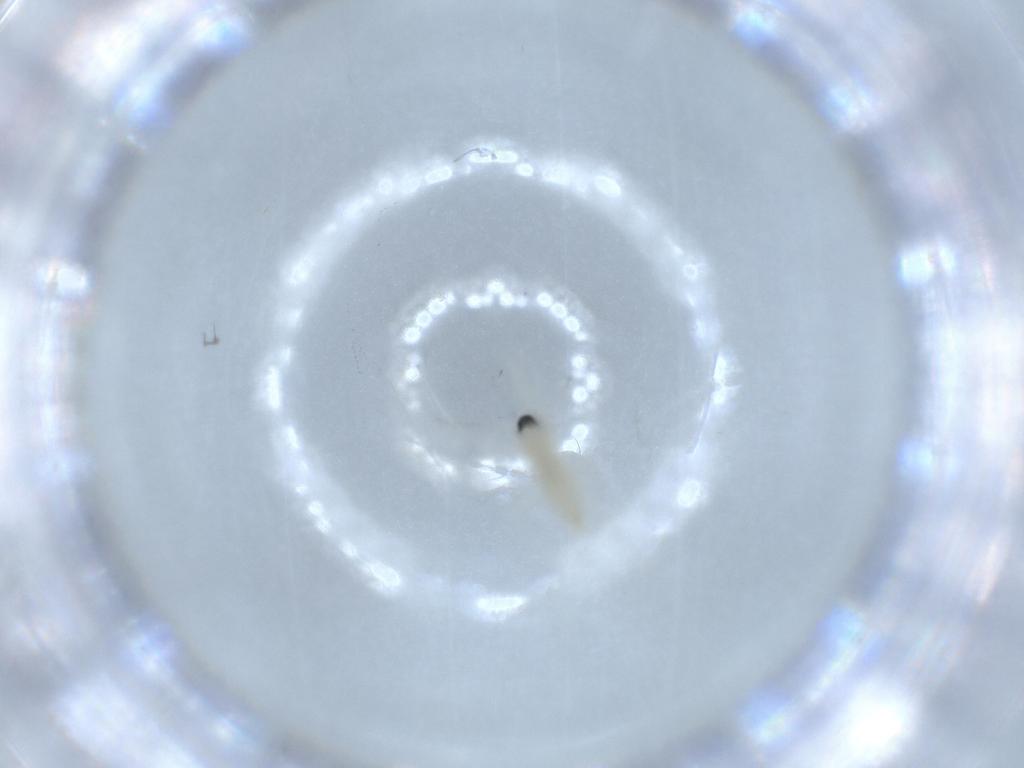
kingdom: Animalia
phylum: Arthropoda
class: Insecta
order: Diptera
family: Cecidomyiidae
